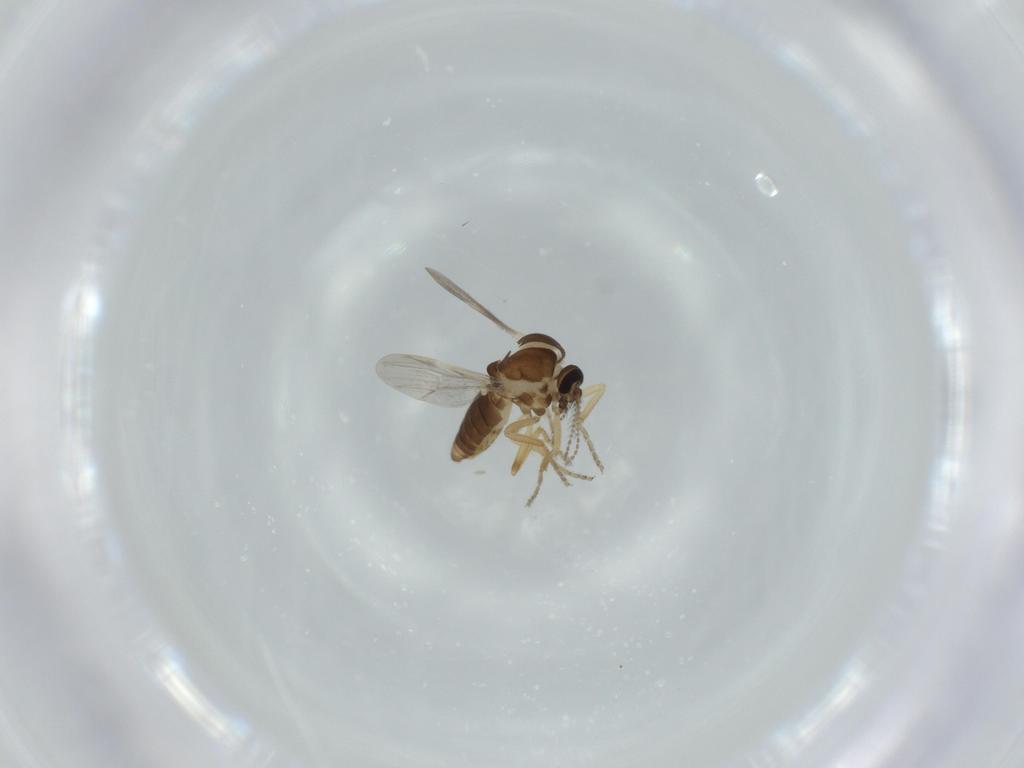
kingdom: Animalia
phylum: Arthropoda
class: Insecta
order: Diptera
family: Ceratopogonidae
